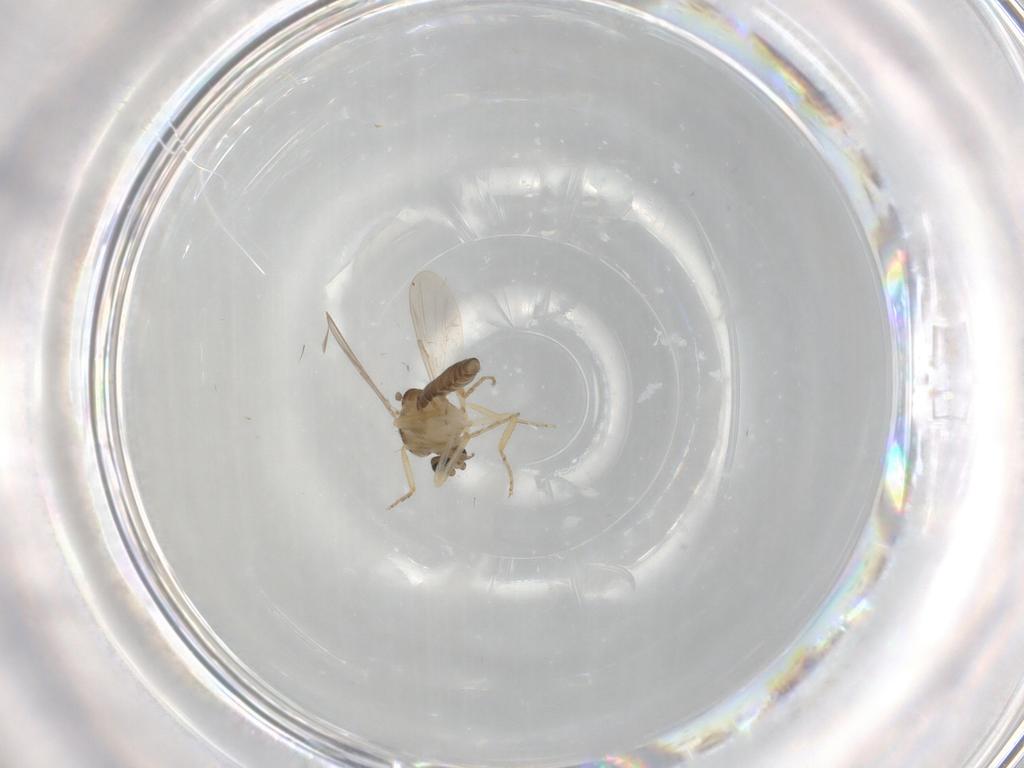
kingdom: Animalia
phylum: Arthropoda
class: Insecta
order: Diptera
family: Ceratopogonidae
